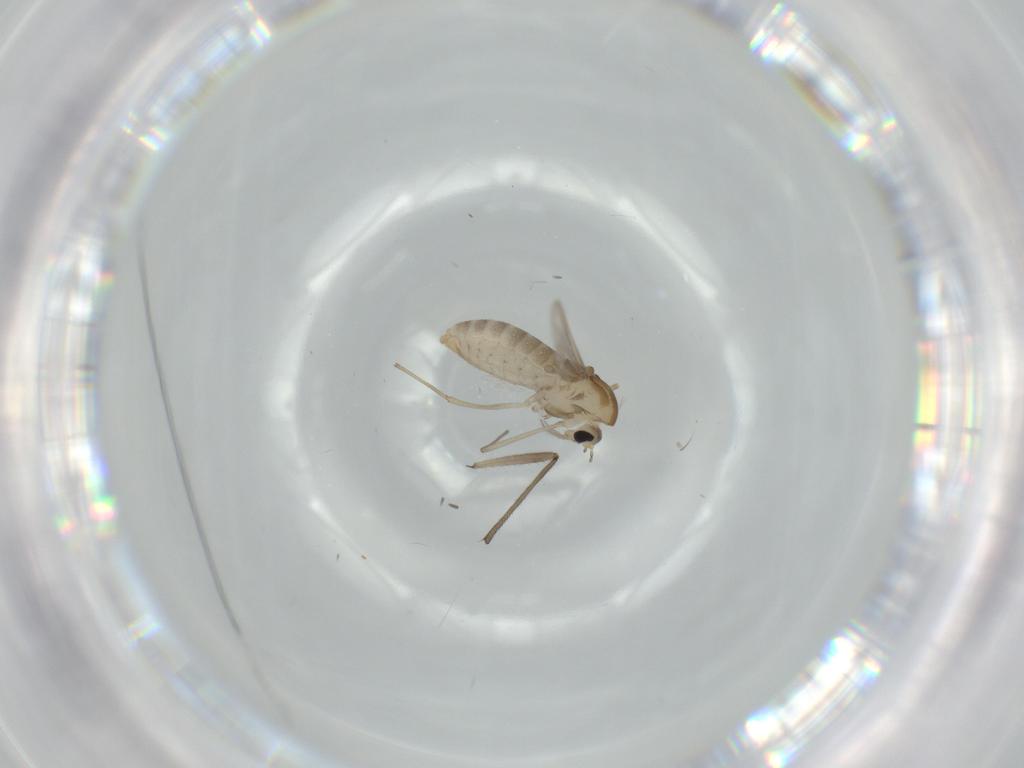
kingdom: Animalia
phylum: Arthropoda
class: Insecta
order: Diptera
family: Chironomidae
